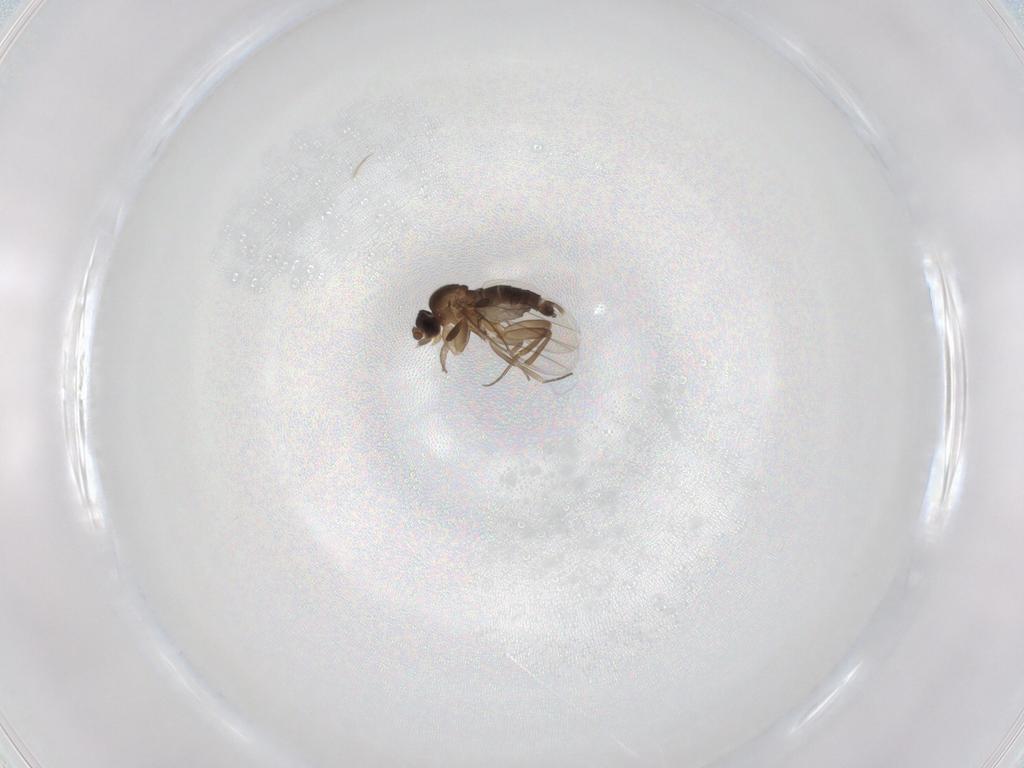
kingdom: Animalia
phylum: Arthropoda
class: Insecta
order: Diptera
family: Phoridae
